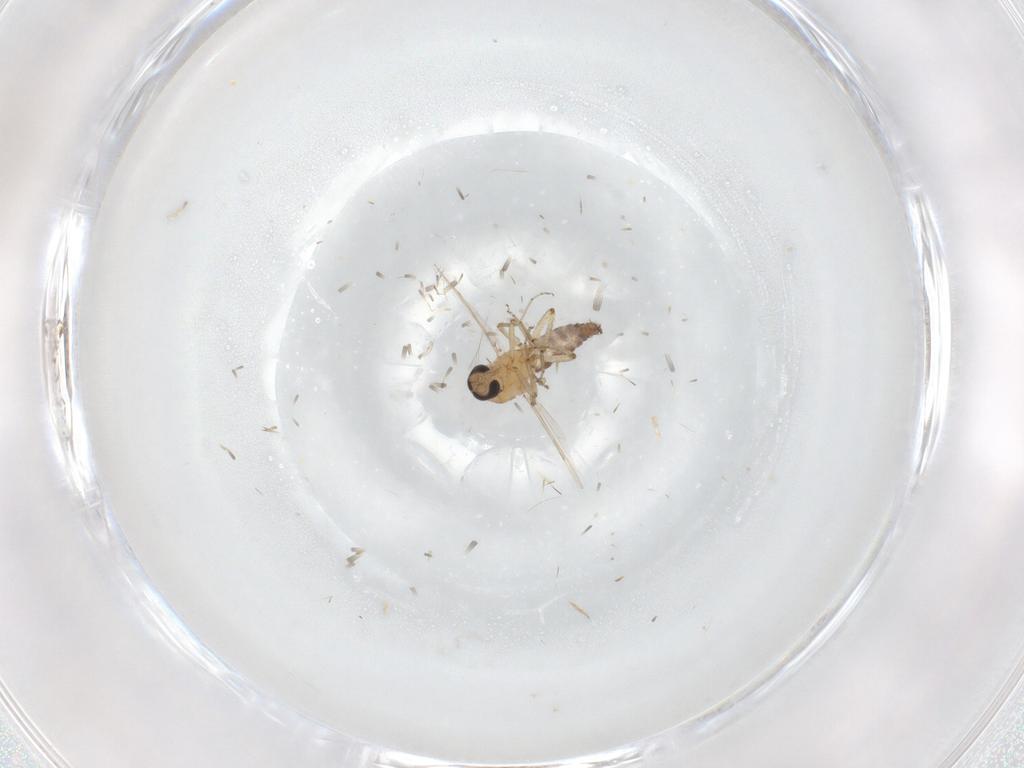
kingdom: Animalia
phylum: Arthropoda
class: Insecta
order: Diptera
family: Ceratopogonidae
